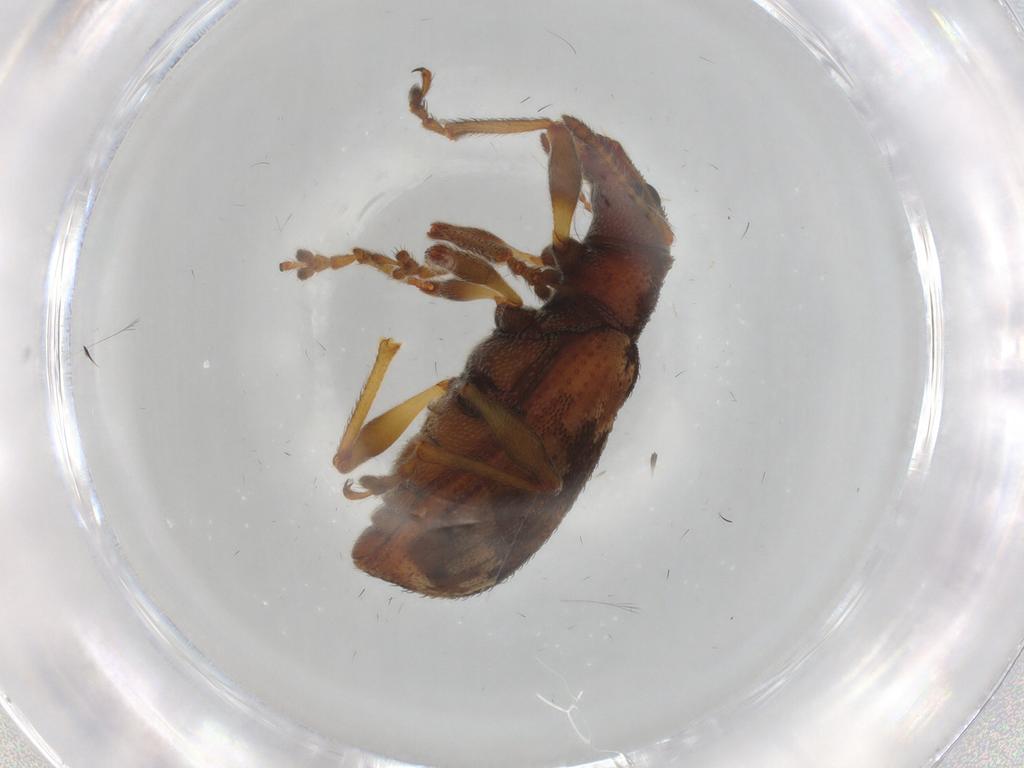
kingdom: Animalia
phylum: Arthropoda
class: Insecta
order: Coleoptera
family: Curculionidae
